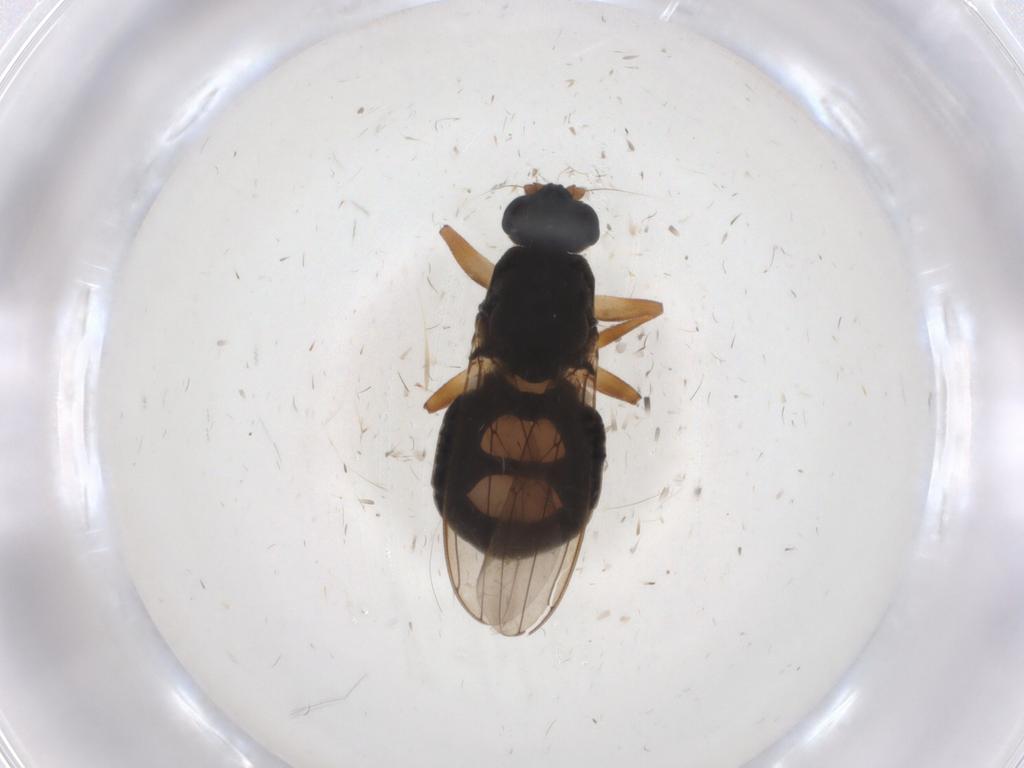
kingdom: Animalia
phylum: Arthropoda
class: Insecta
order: Diptera
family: Sphaeroceridae
